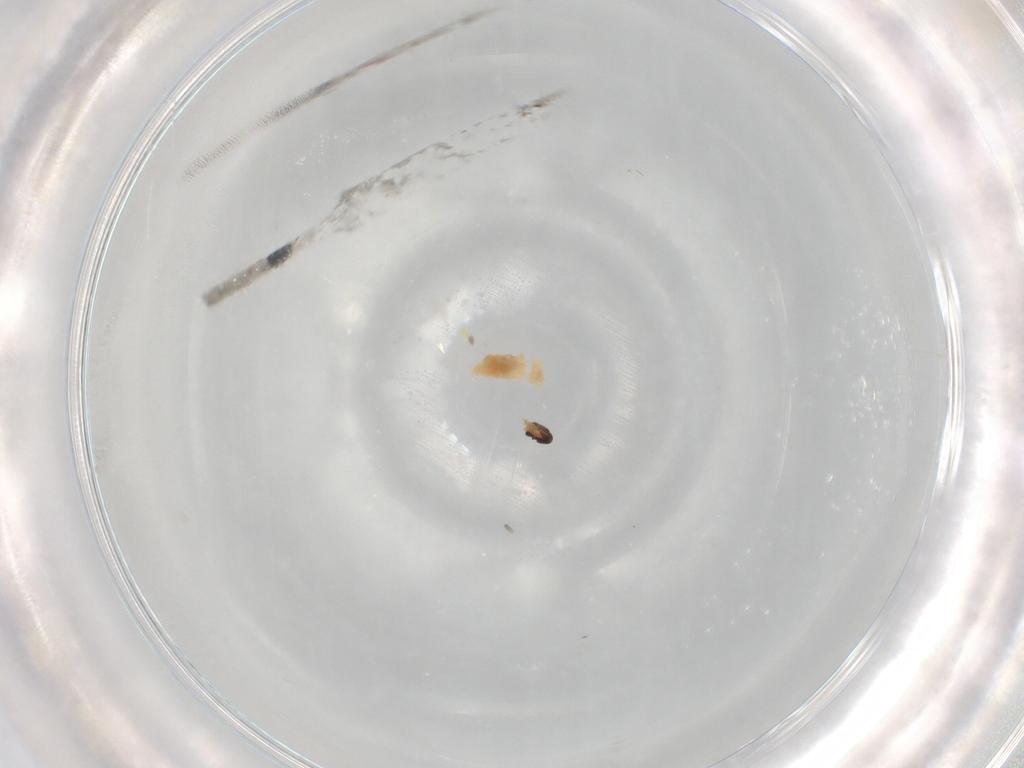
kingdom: Animalia
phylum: Arthropoda
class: Insecta
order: Diptera
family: Cecidomyiidae
